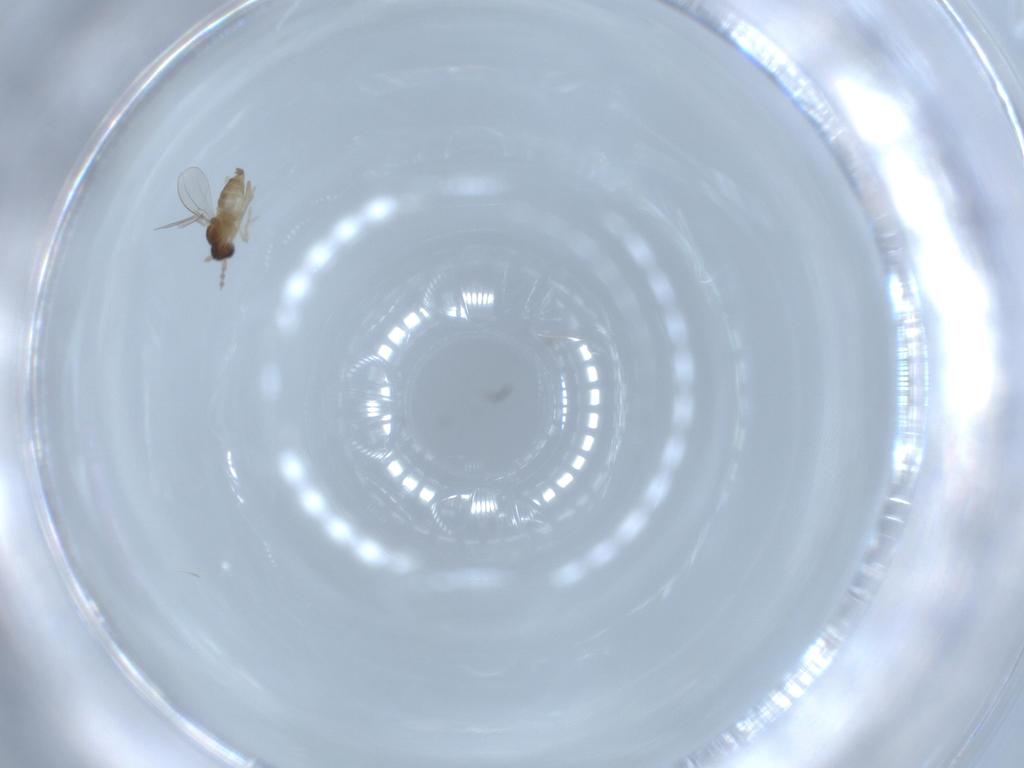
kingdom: Animalia
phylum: Arthropoda
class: Insecta
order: Diptera
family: Cecidomyiidae
